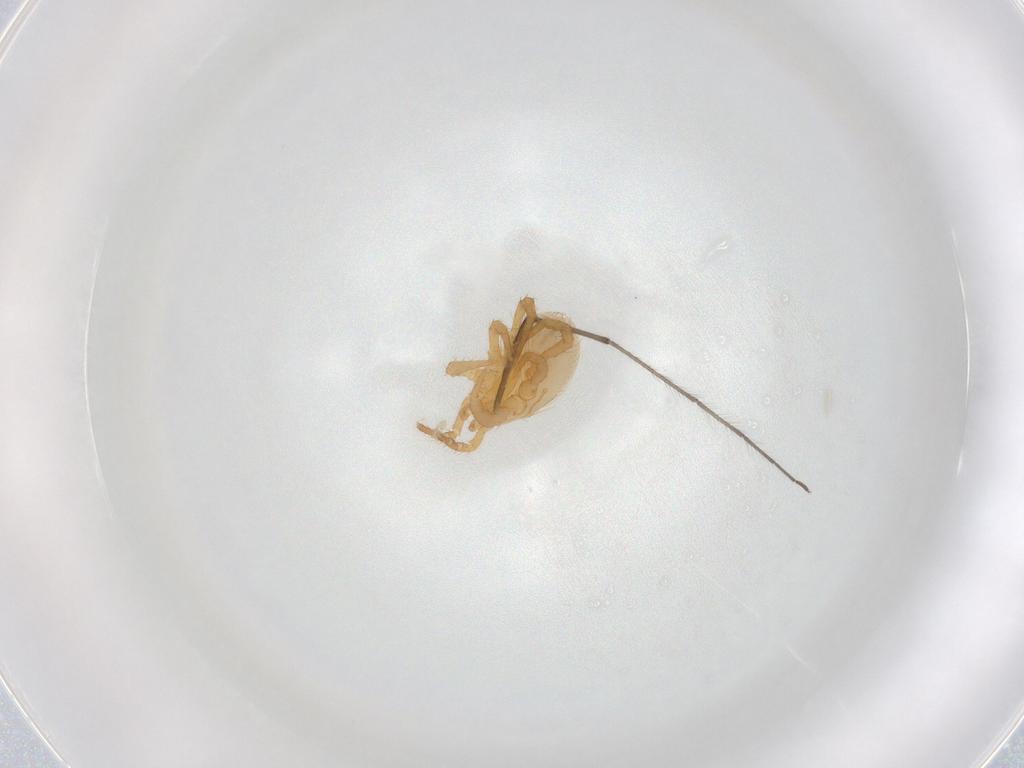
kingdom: Animalia
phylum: Arthropoda
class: Arachnida
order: Mesostigmata
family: Parasitidae
